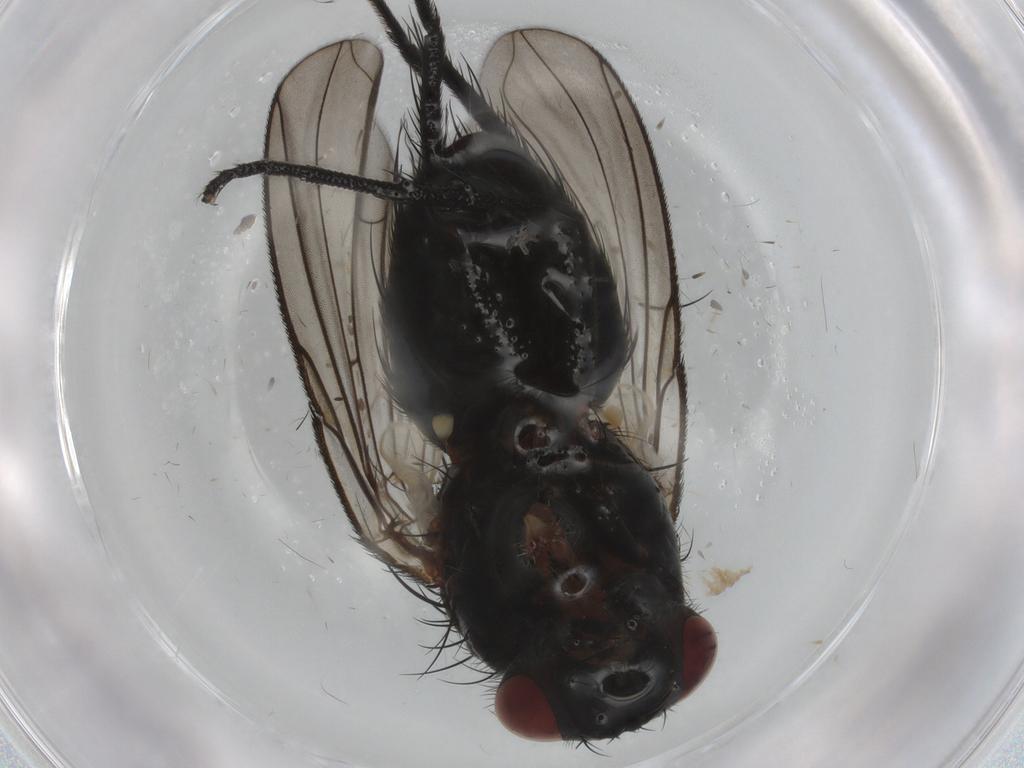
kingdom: Animalia
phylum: Arthropoda
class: Insecta
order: Diptera
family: Tachinidae
